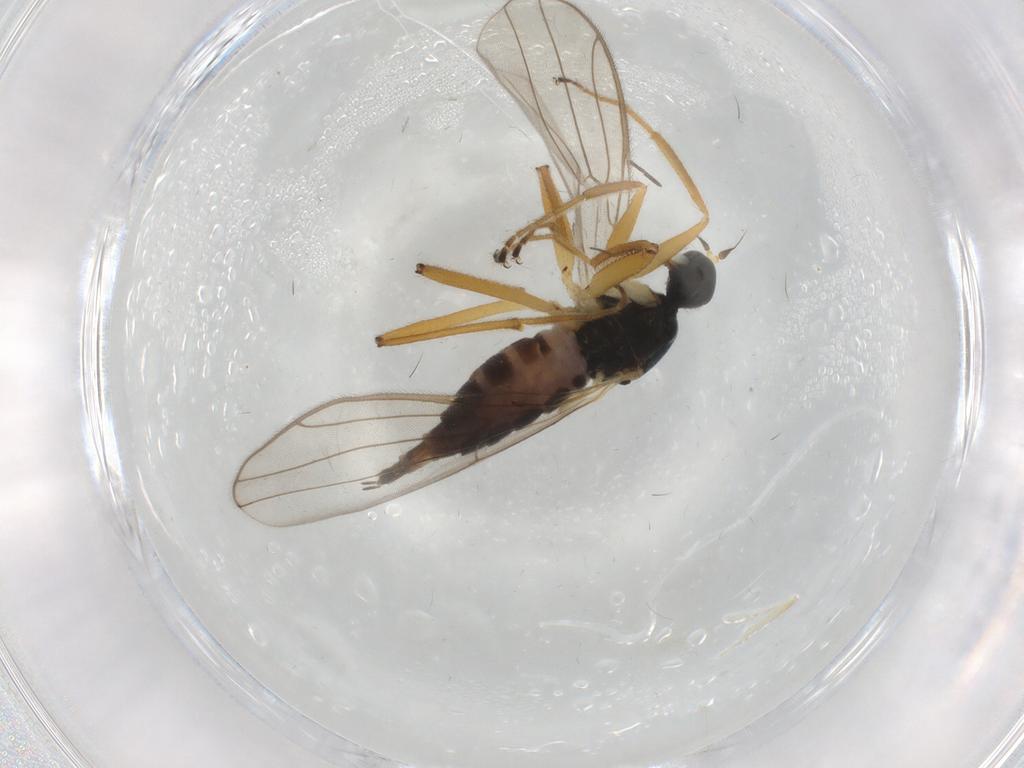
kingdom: Animalia
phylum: Arthropoda
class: Insecta
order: Diptera
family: Hybotidae
